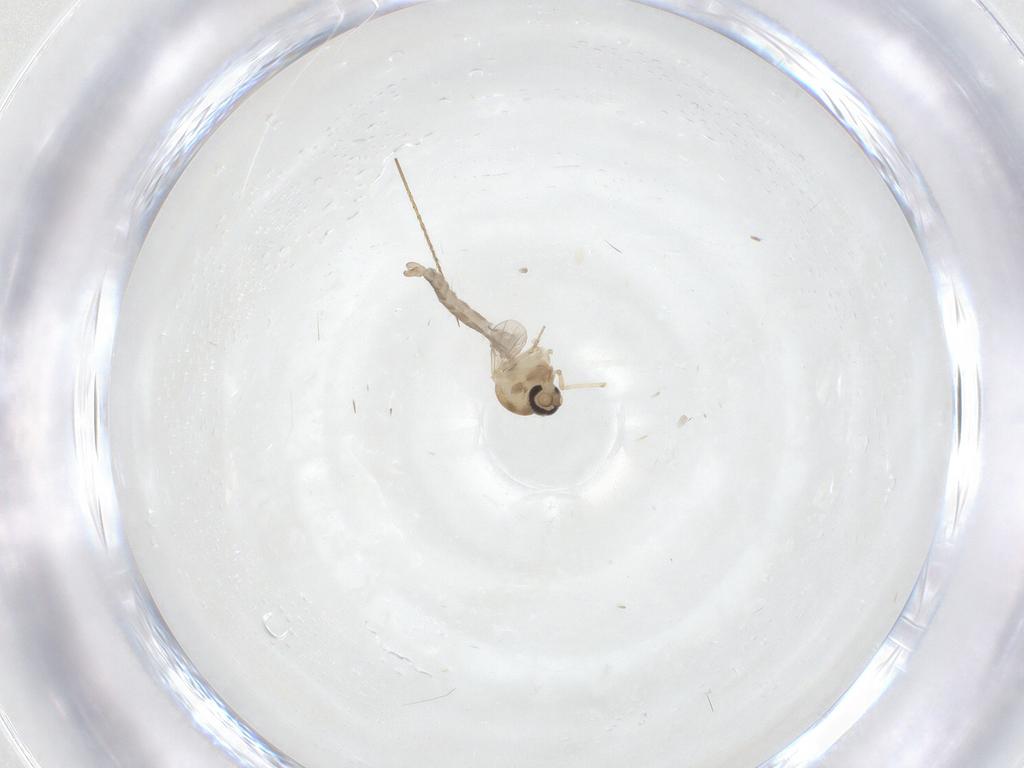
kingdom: Animalia
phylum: Arthropoda
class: Insecta
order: Diptera
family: Ceratopogonidae
